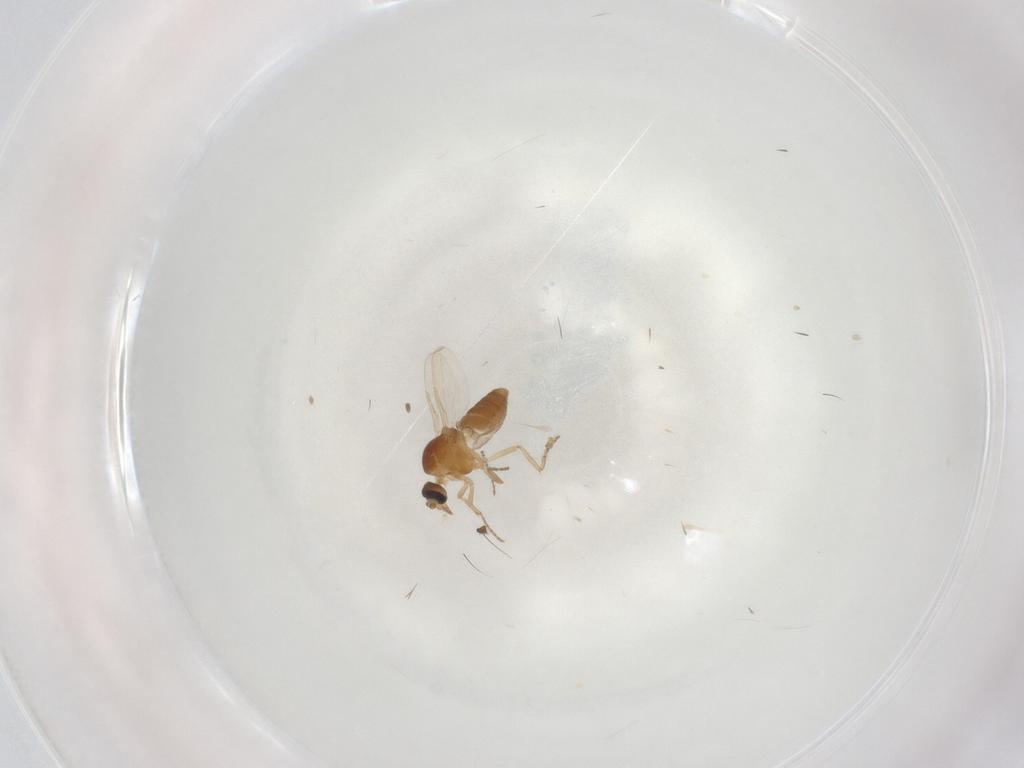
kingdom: Animalia
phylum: Arthropoda
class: Insecta
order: Diptera
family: Ceratopogonidae
